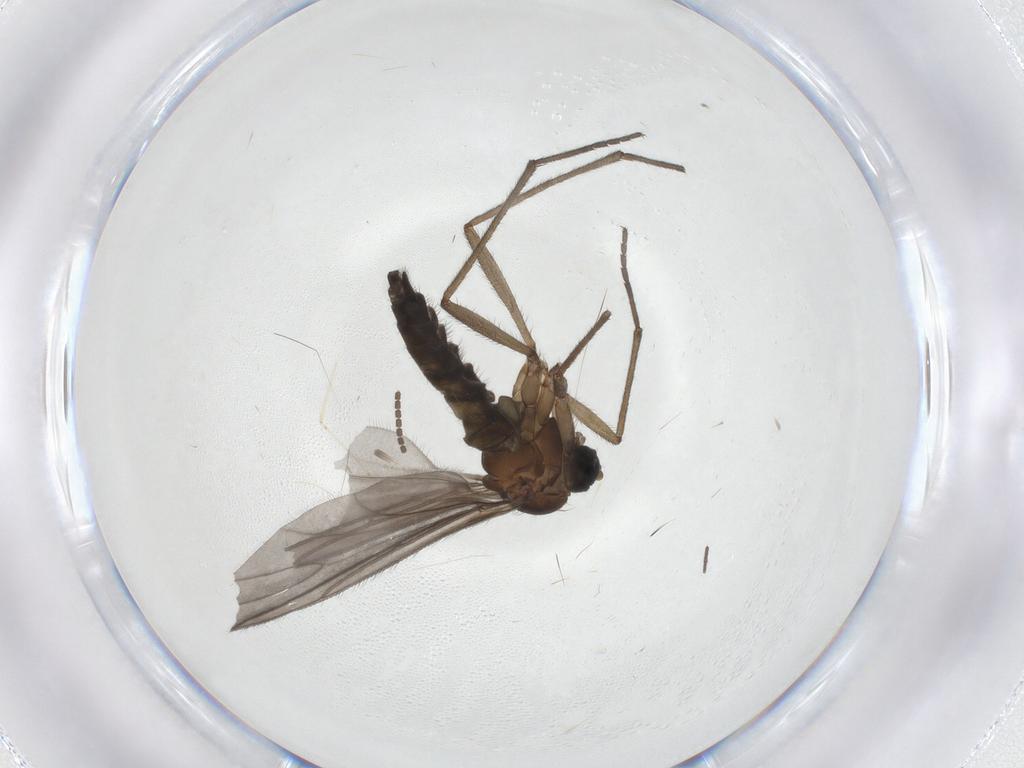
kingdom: Animalia
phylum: Arthropoda
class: Insecta
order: Diptera
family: Sciaridae
